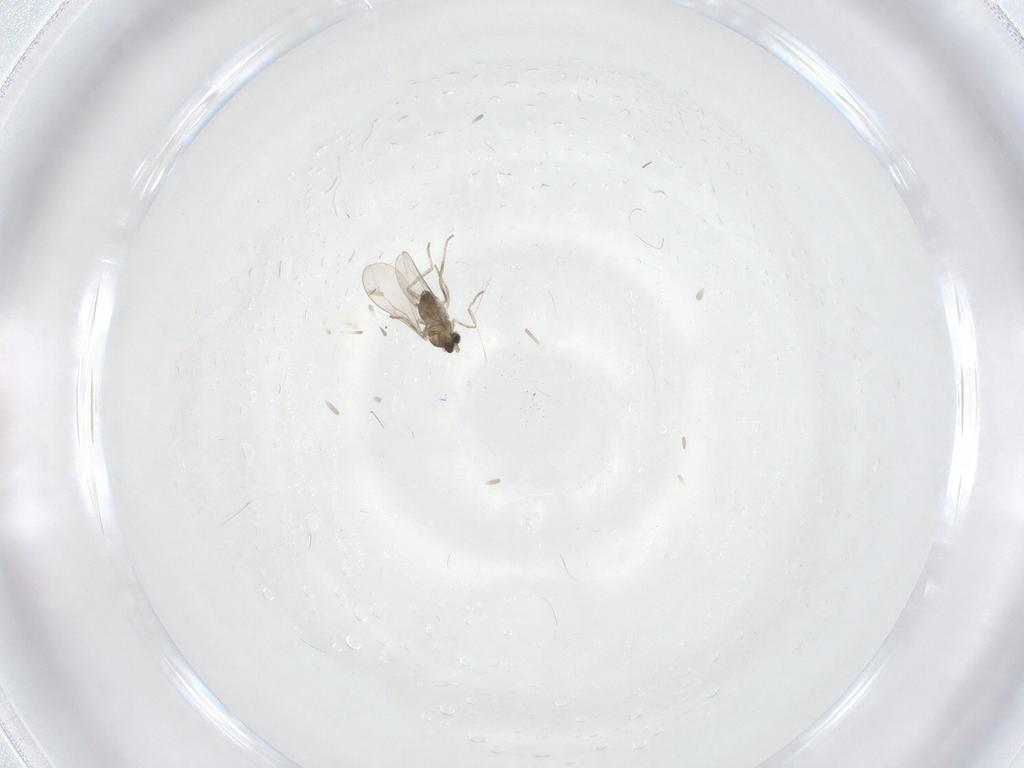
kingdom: Animalia
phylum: Arthropoda
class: Insecta
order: Diptera
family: Cecidomyiidae
